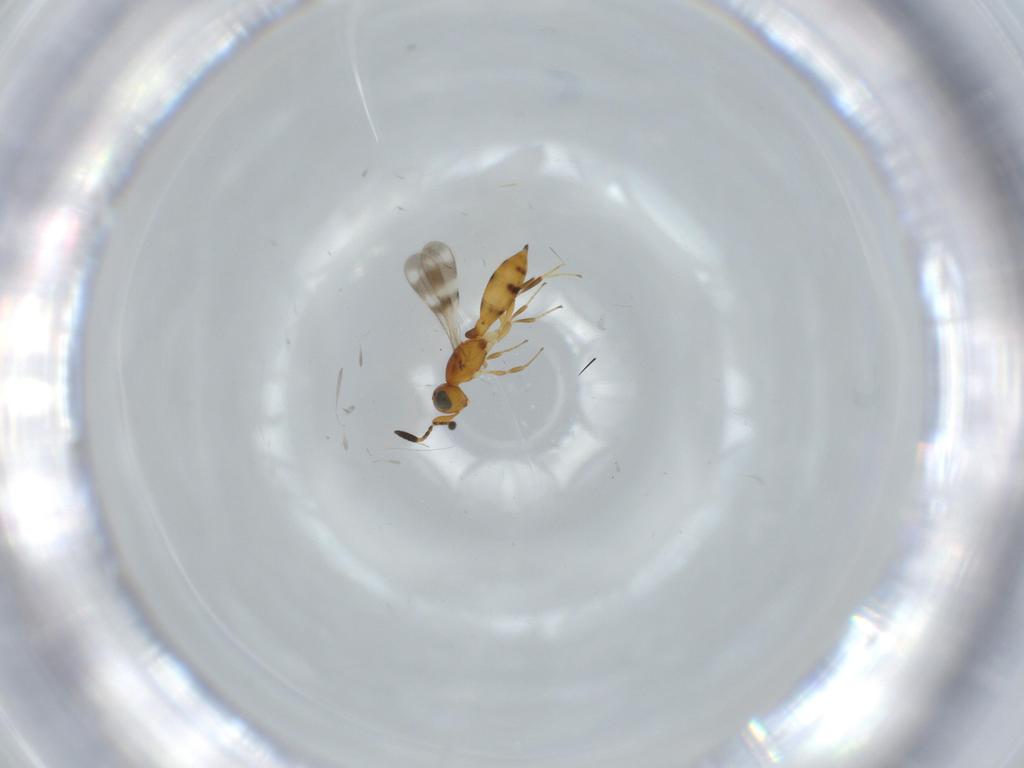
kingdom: Animalia
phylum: Arthropoda
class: Insecta
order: Hymenoptera
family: Scelionidae
